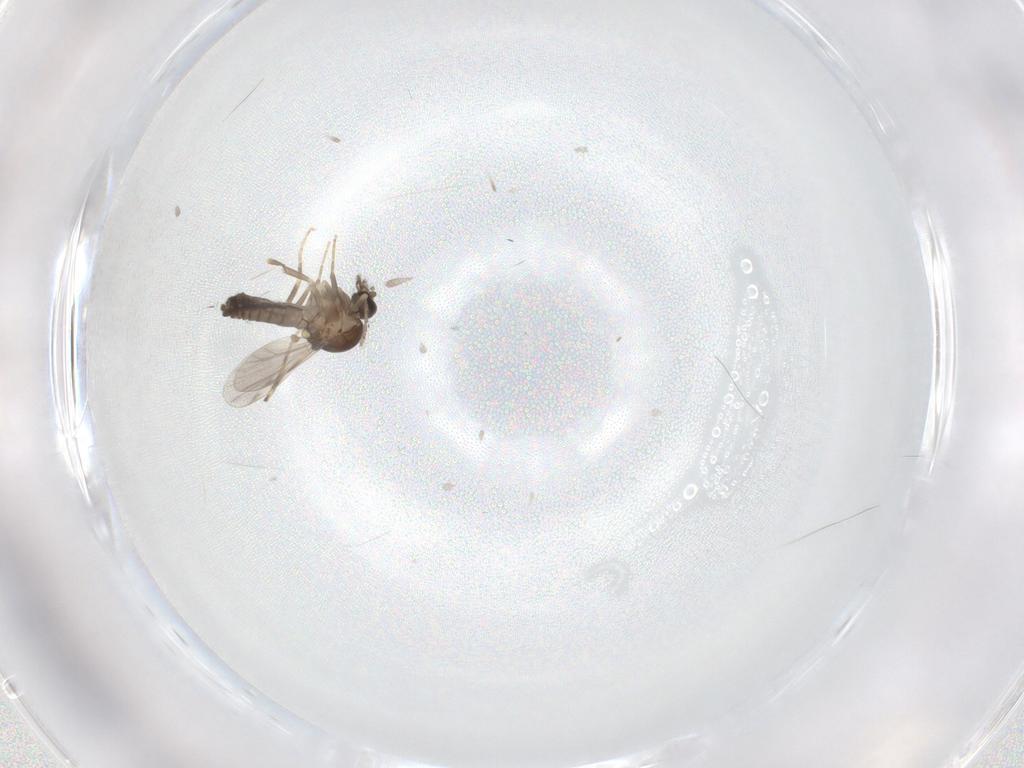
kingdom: Animalia
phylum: Arthropoda
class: Insecta
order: Diptera
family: Ceratopogonidae
